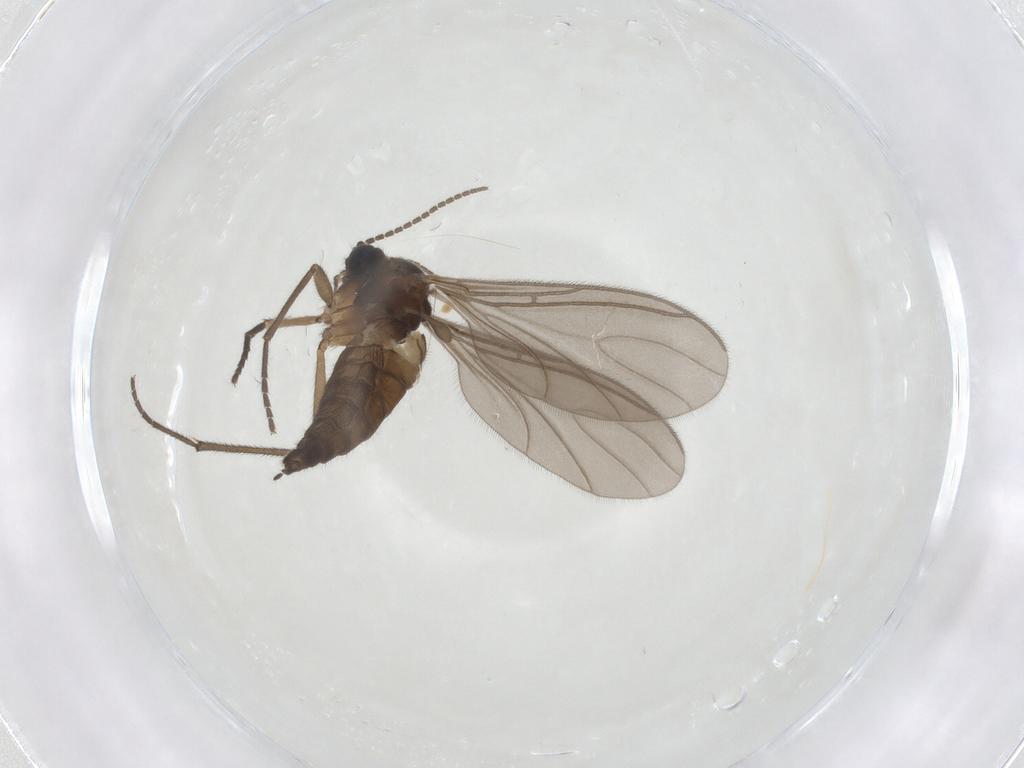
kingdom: Animalia
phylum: Arthropoda
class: Insecta
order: Diptera
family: Sciaridae
